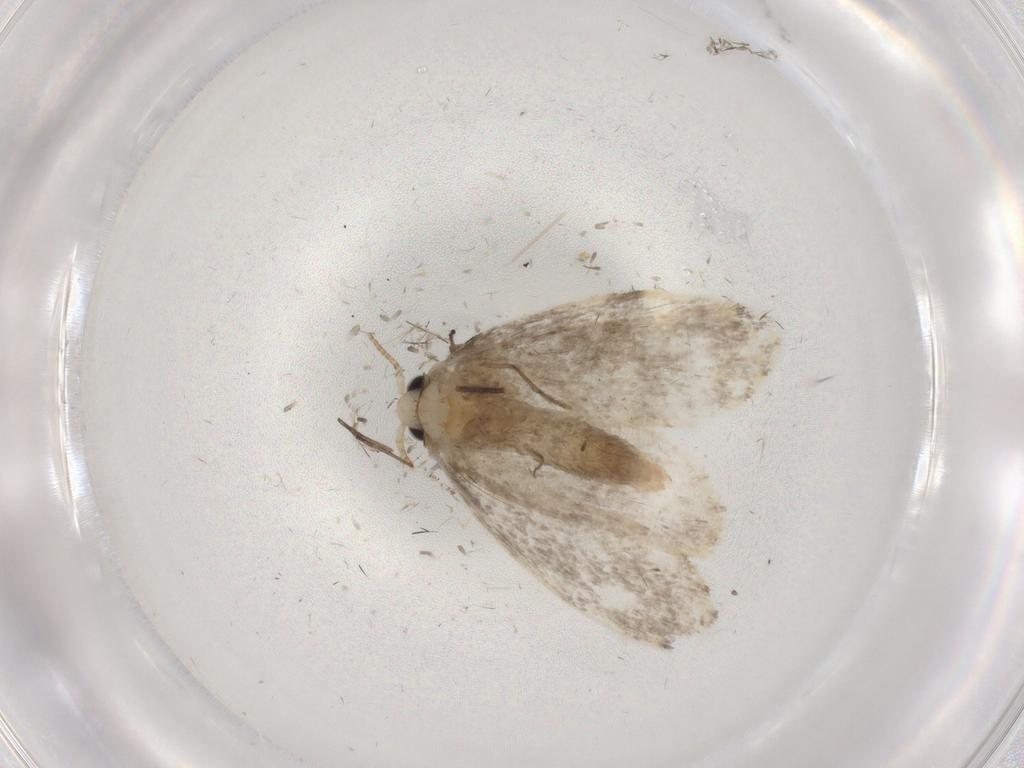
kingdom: Animalia
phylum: Arthropoda
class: Insecta
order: Lepidoptera
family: Psychidae
